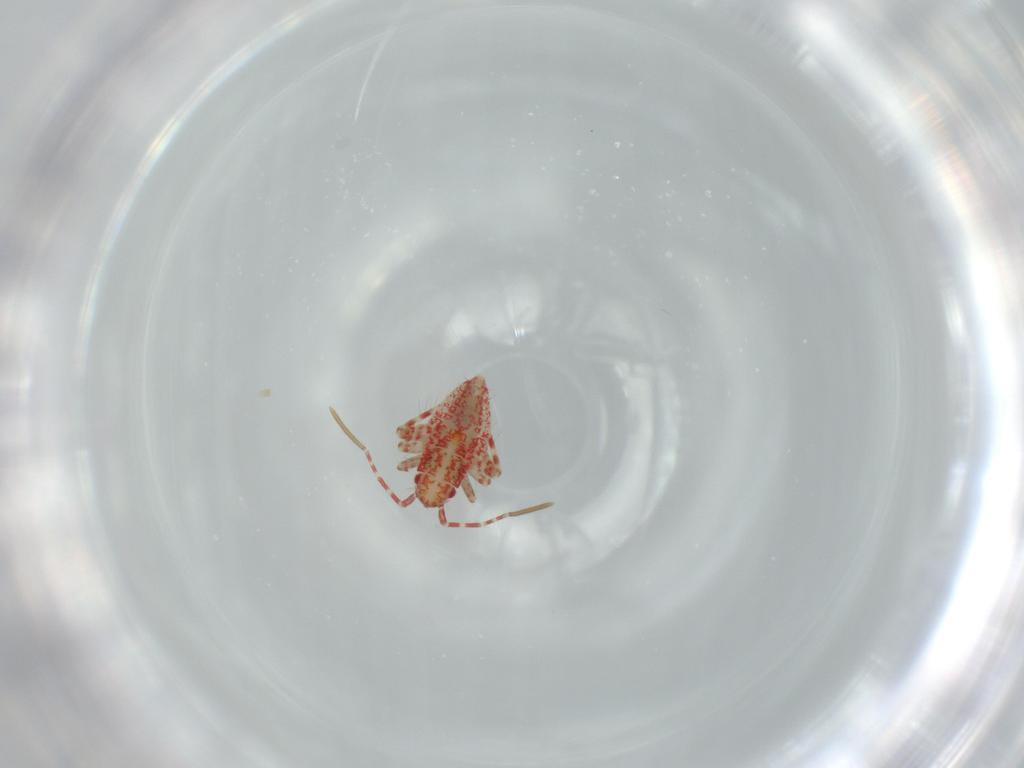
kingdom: Animalia
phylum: Arthropoda
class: Insecta
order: Hemiptera
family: Miridae
